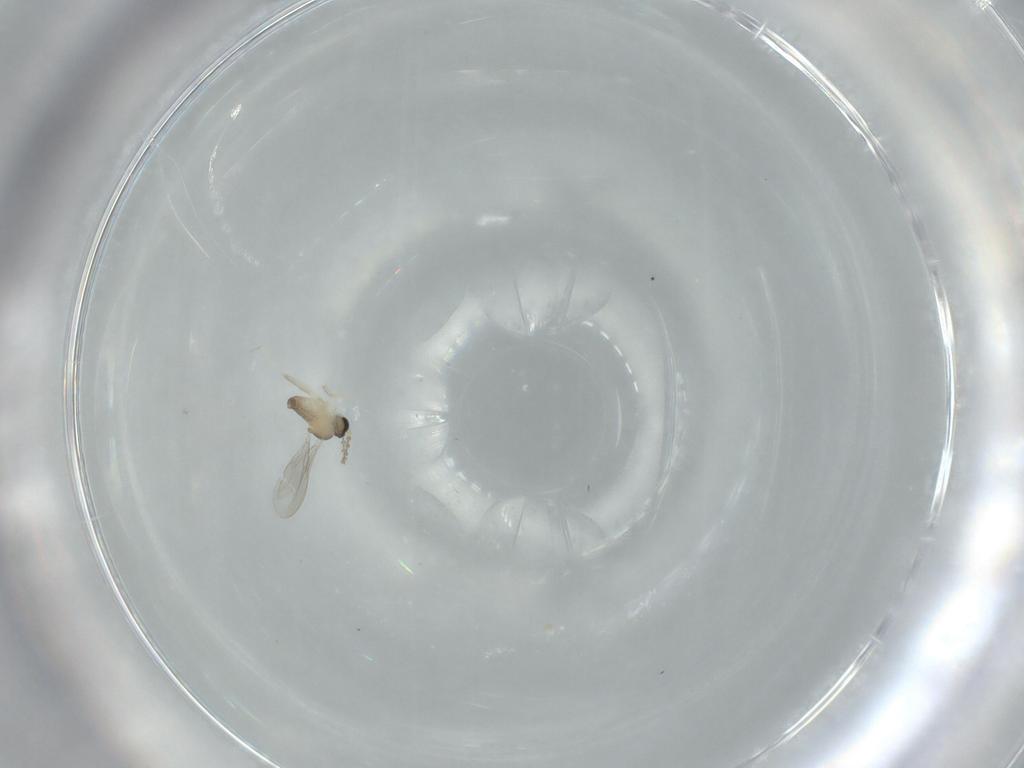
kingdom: Animalia
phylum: Arthropoda
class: Insecta
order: Diptera
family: Cecidomyiidae
